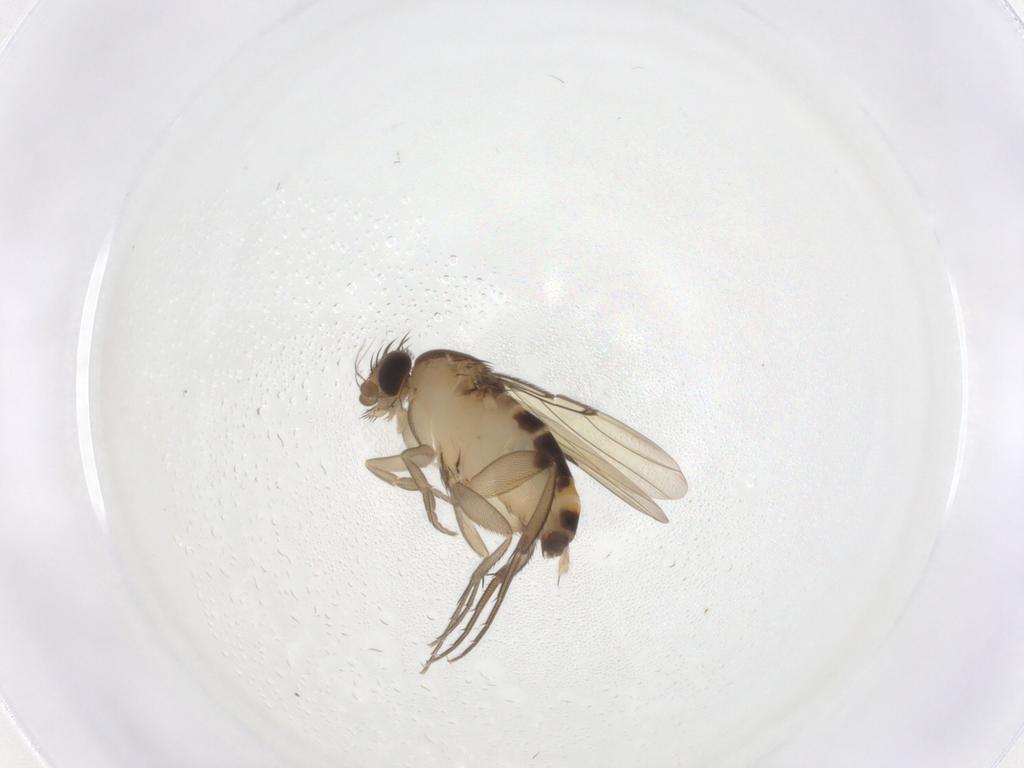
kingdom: Animalia
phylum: Arthropoda
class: Insecta
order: Diptera
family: Phoridae
